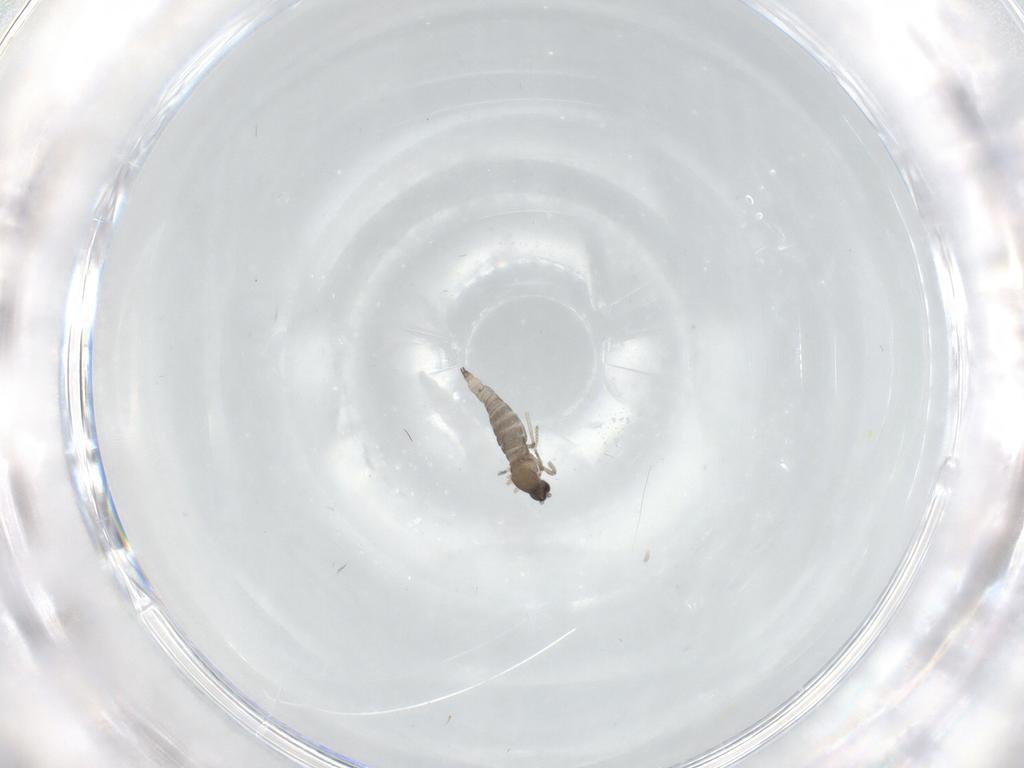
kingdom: Animalia
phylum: Arthropoda
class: Insecta
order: Diptera
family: Cecidomyiidae
